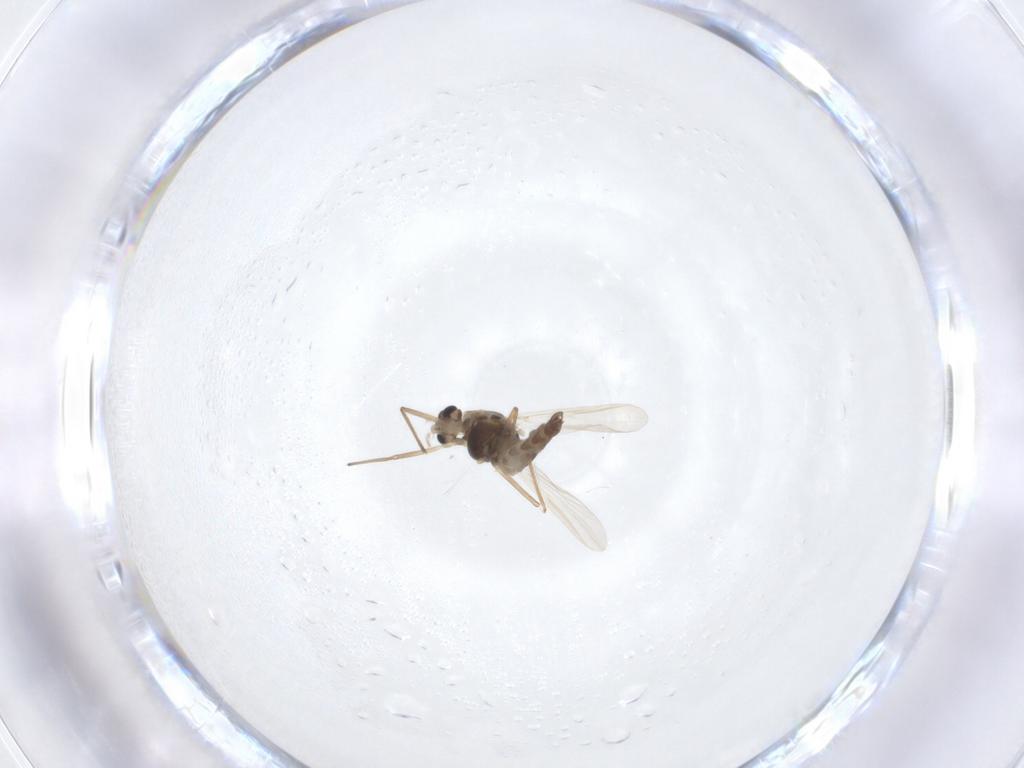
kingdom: Animalia
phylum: Arthropoda
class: Insecta
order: Diptera
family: Chironomidae
